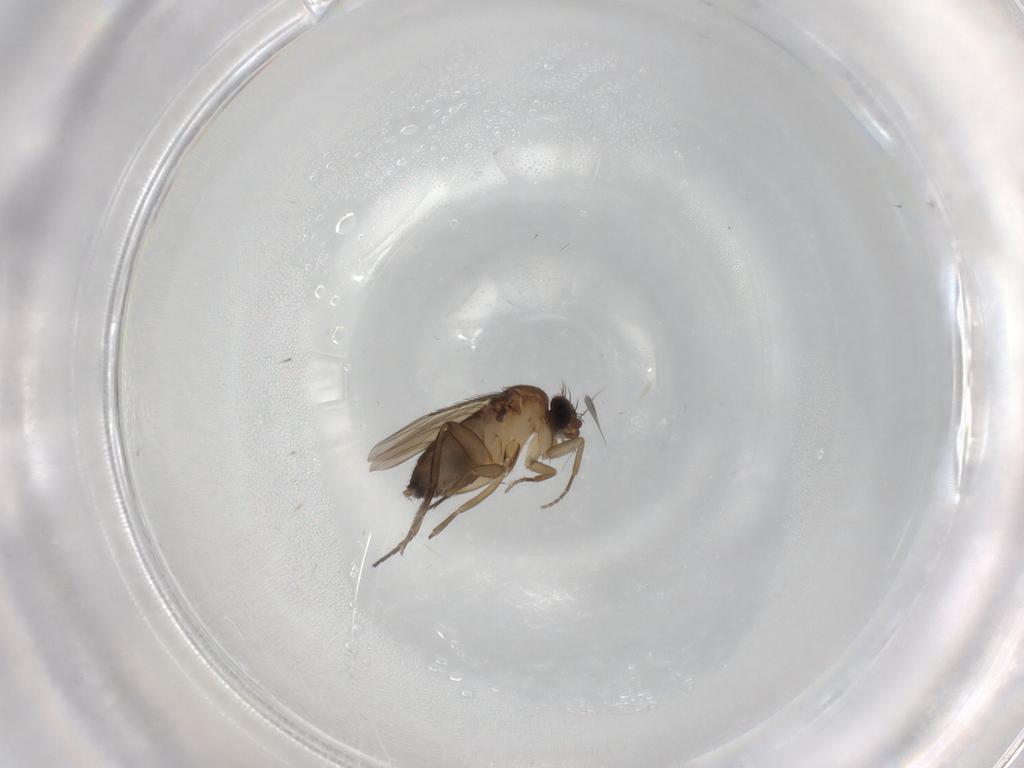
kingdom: Animalia
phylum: Arthropoda
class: Insecta
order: Diptera
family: Phoridae
